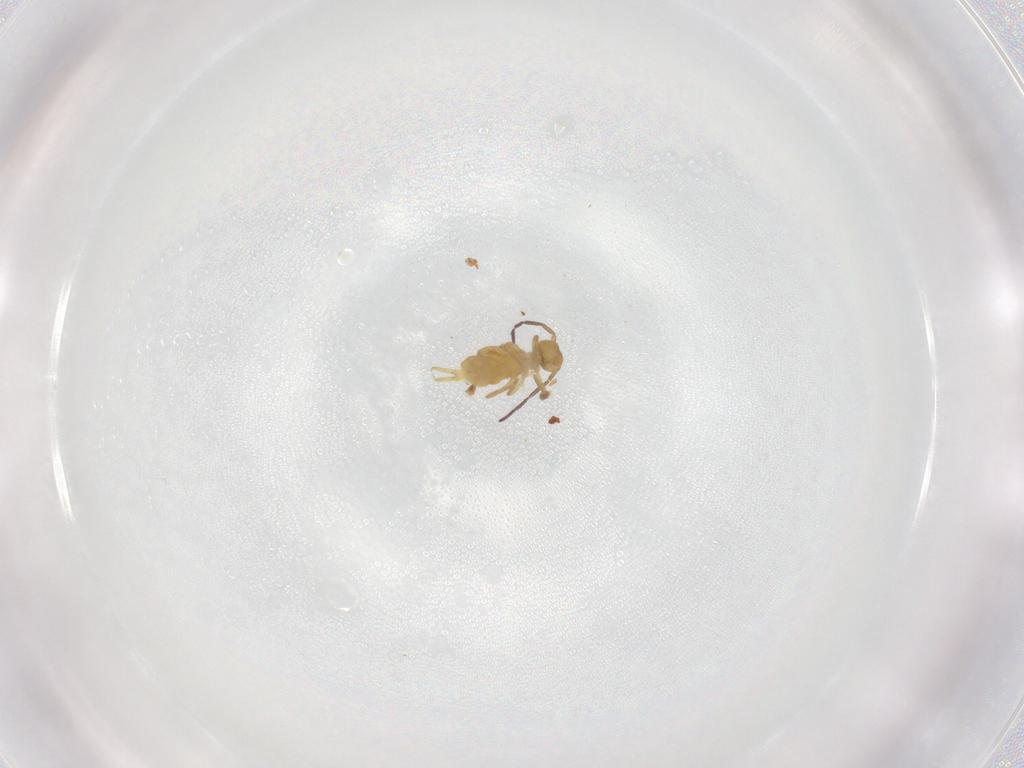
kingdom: Animalia
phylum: Arthropoda
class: Collembola
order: Symphypleona
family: Bourletiellidae
